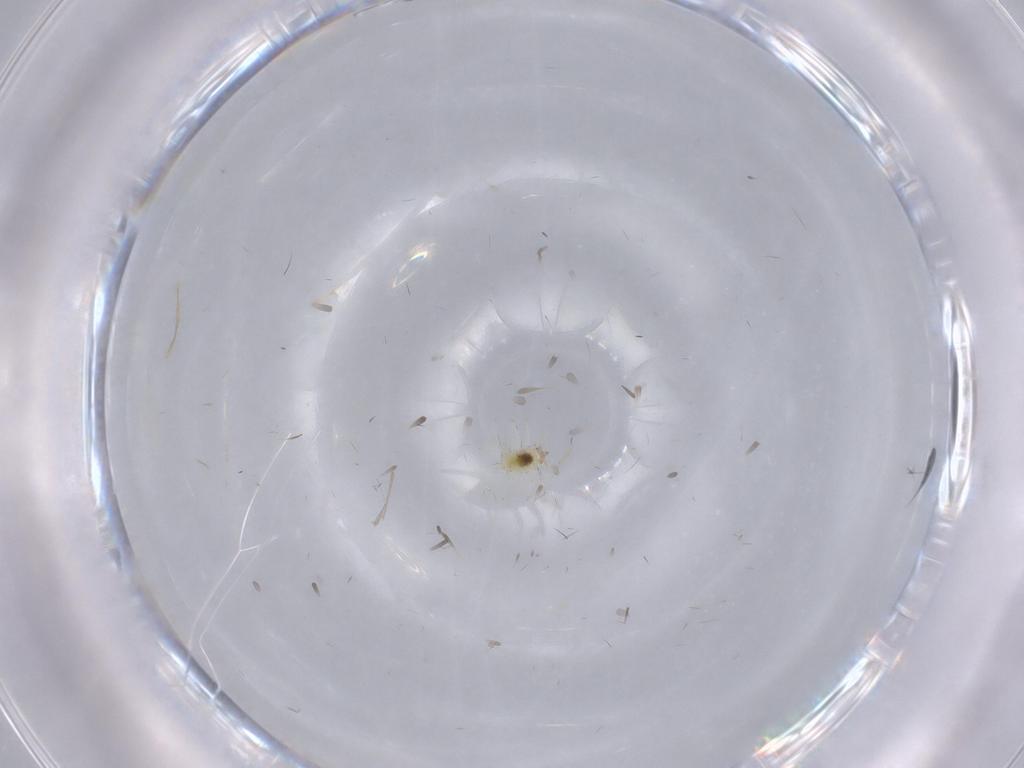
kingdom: Animalia
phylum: Arthropoda
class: Insecta
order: Neuroptera
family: Coniopterygidae
